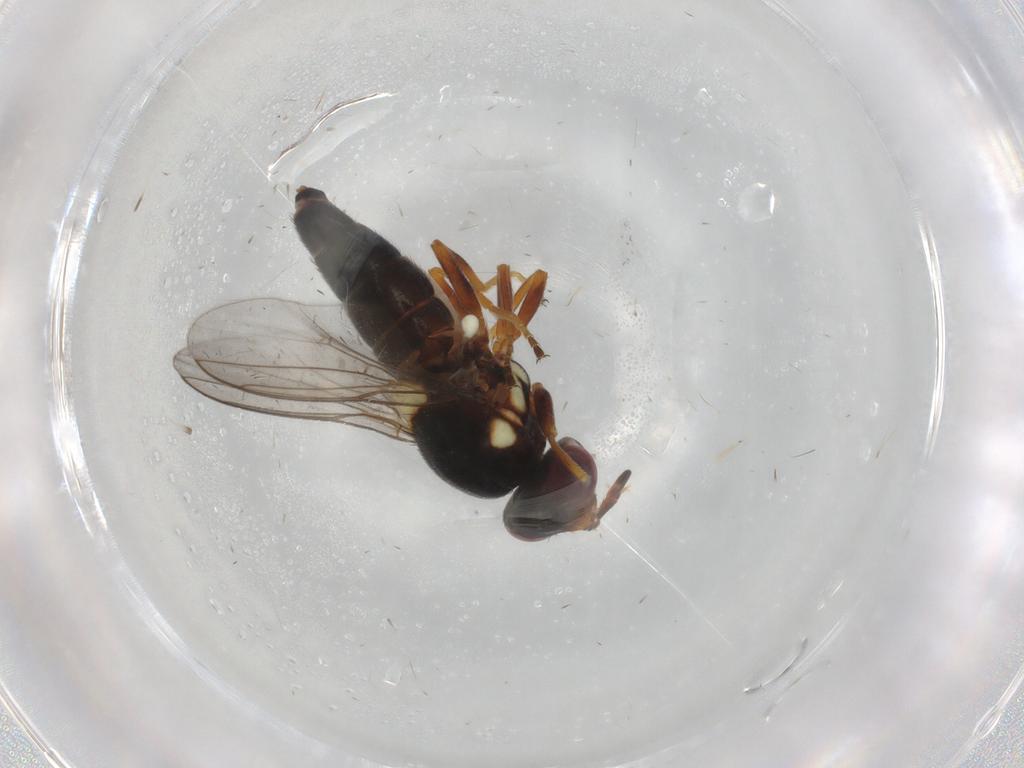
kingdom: Animalia
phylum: Arthropoda
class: Insecta
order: Diptera
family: Chloropidae
